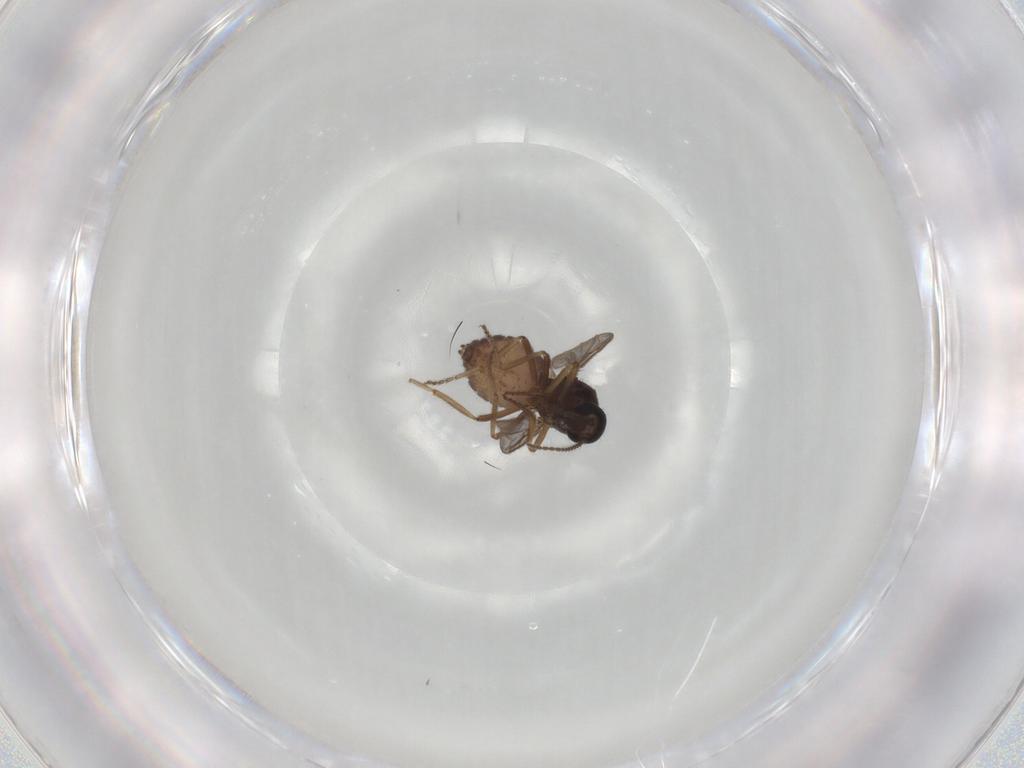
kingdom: Animalia
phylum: Arthropoda
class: Insecta
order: Diptera
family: Ceratopogonidae
